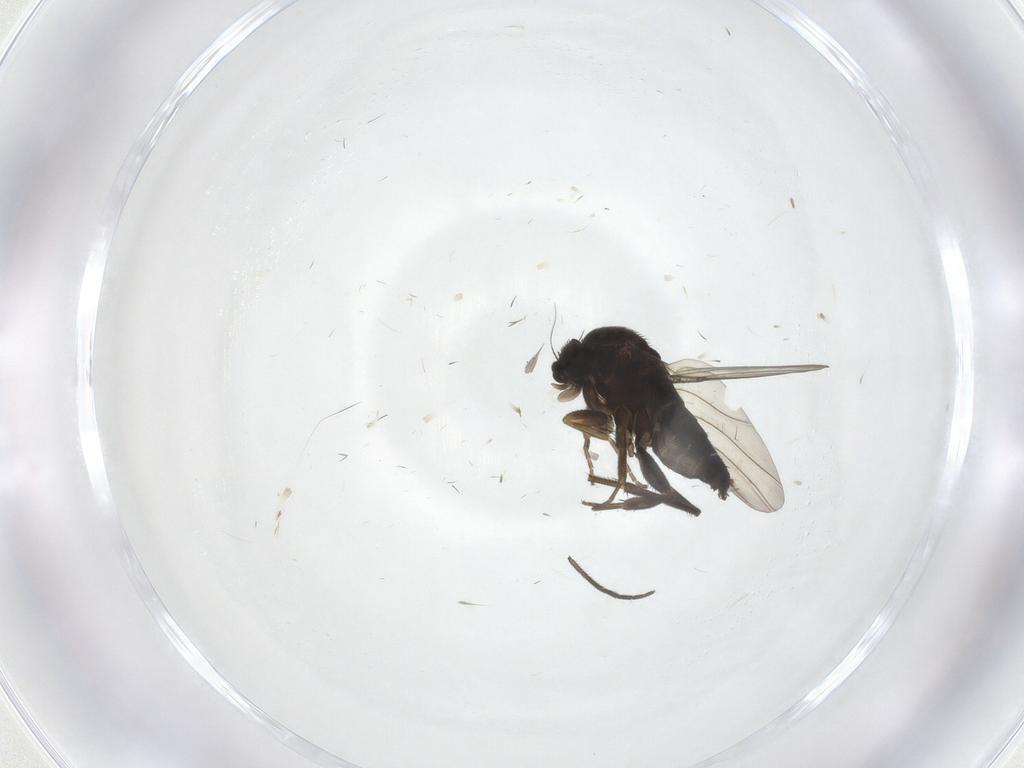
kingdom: Animalia
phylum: Arthropoda
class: Insecta
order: Diptera
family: Phoridae
